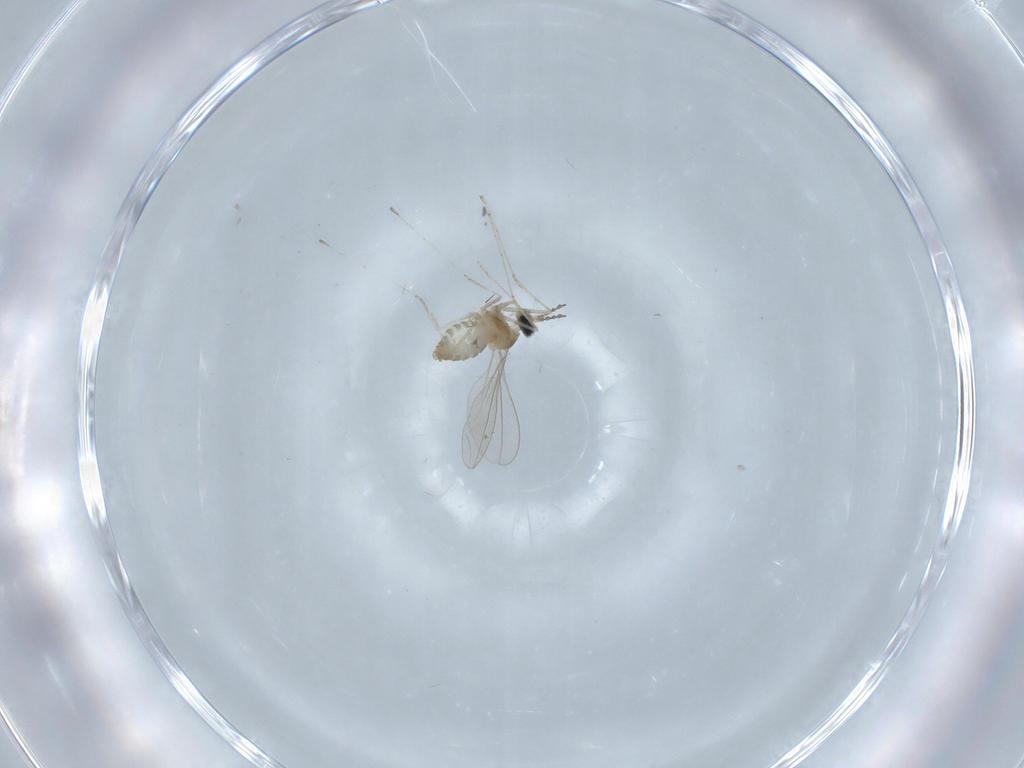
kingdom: Animalia
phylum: Arthropoda
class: Insecta
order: Diptera
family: Cecidomyiidae
